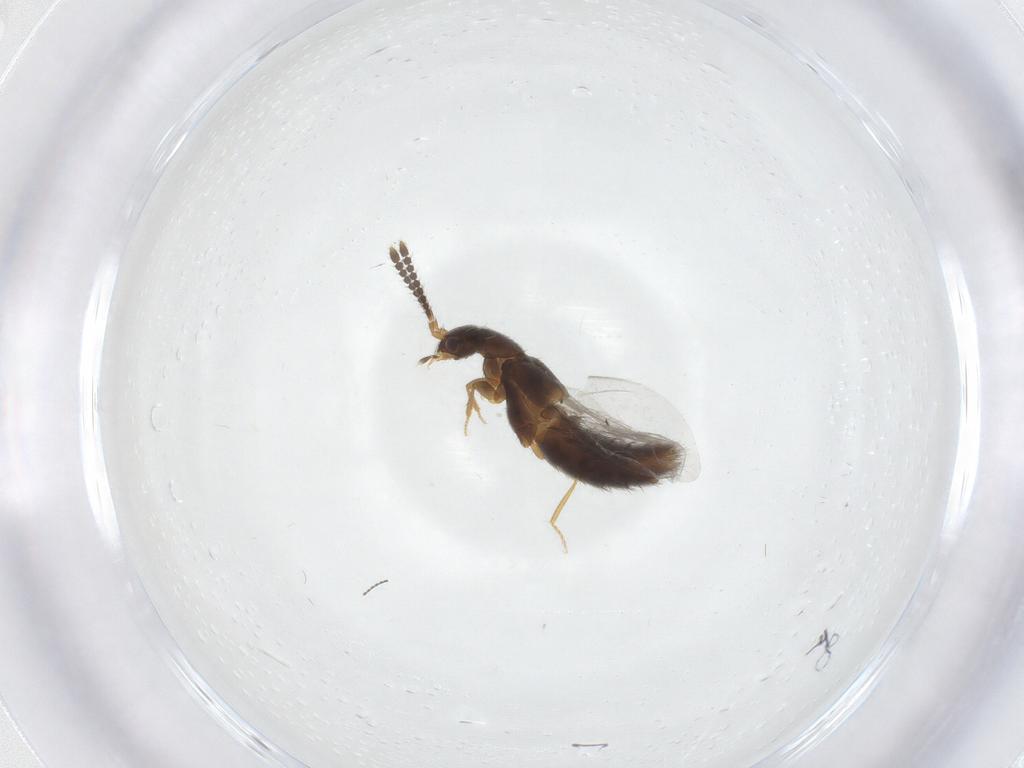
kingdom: Animalia
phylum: Arthropoda
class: Insecta
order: Coleoptera
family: Staphylinidae
